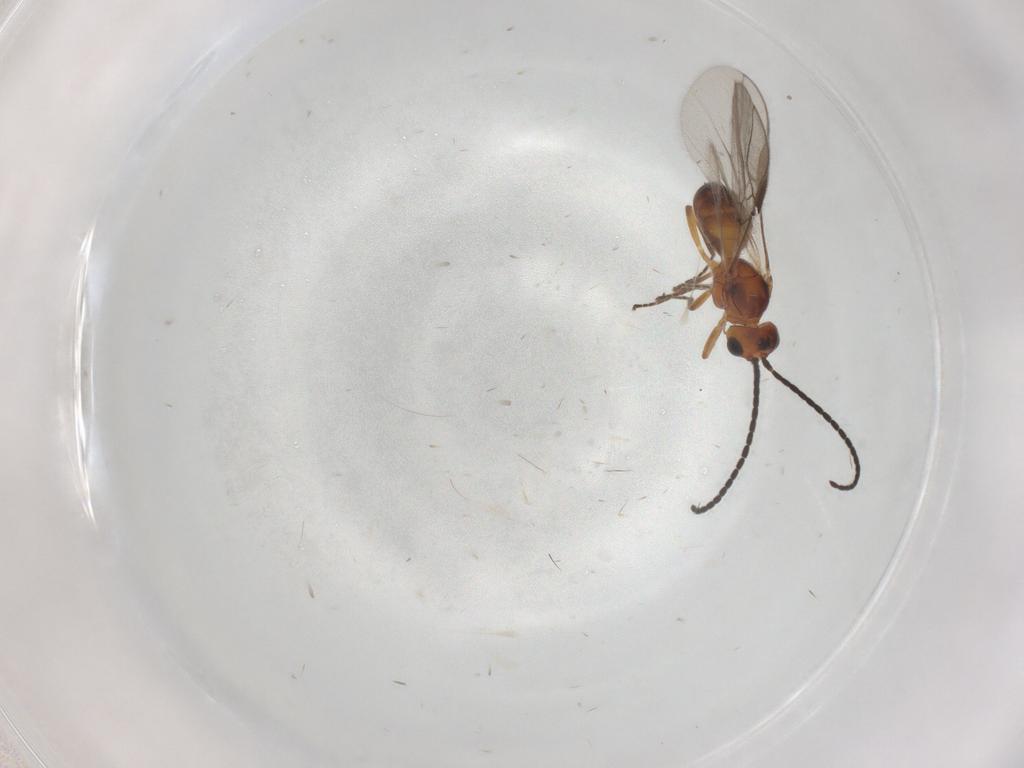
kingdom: Animalia
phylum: Arthropoda
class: Insecta
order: Hymenoptera
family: Braconidae
